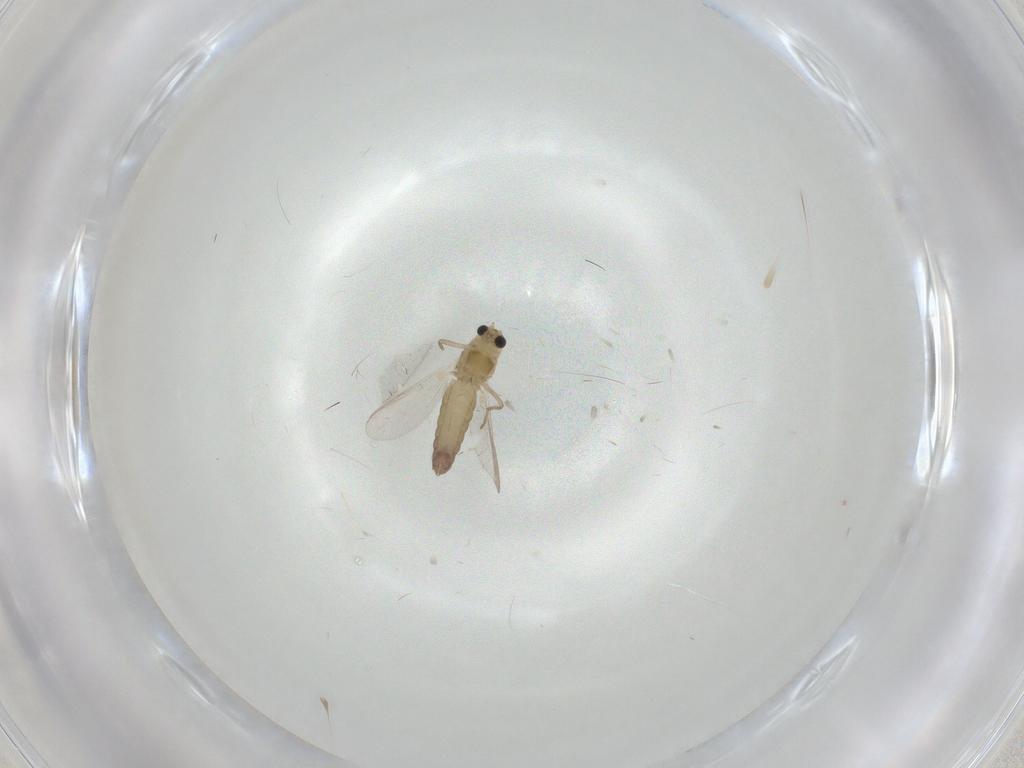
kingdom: Animalia
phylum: Arthropoda
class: Insecta
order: Diptera
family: Chironomidae
